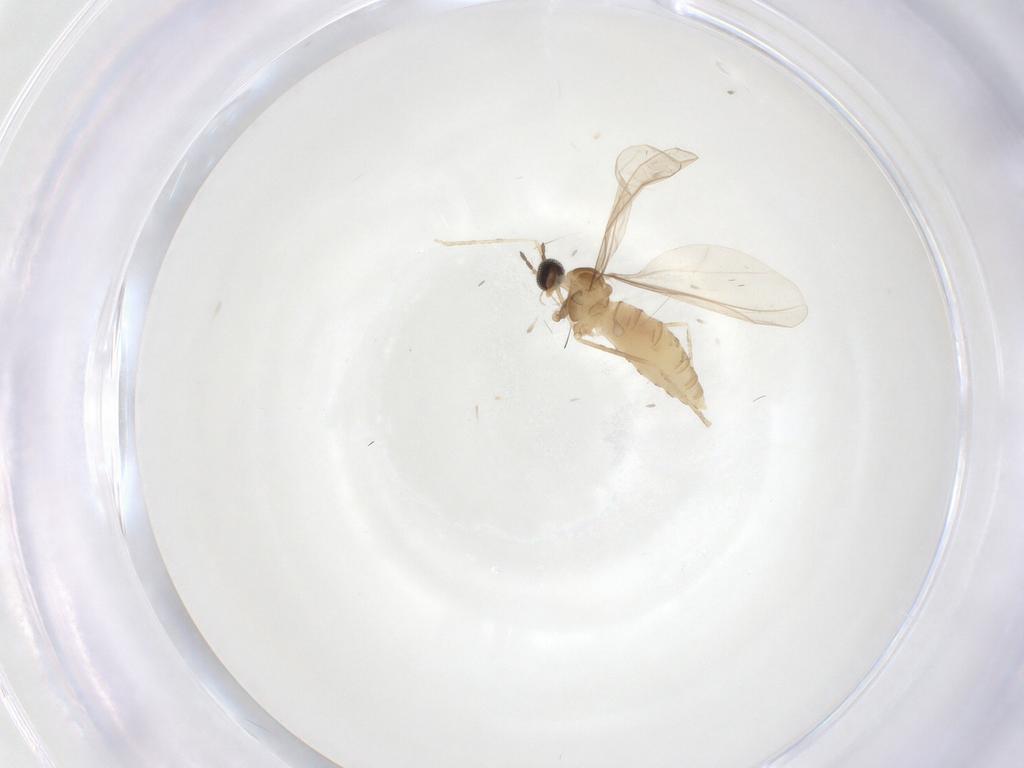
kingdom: Animalia
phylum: Arthropoda
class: Insecta
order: Diptera
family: Cecidomyiidae
